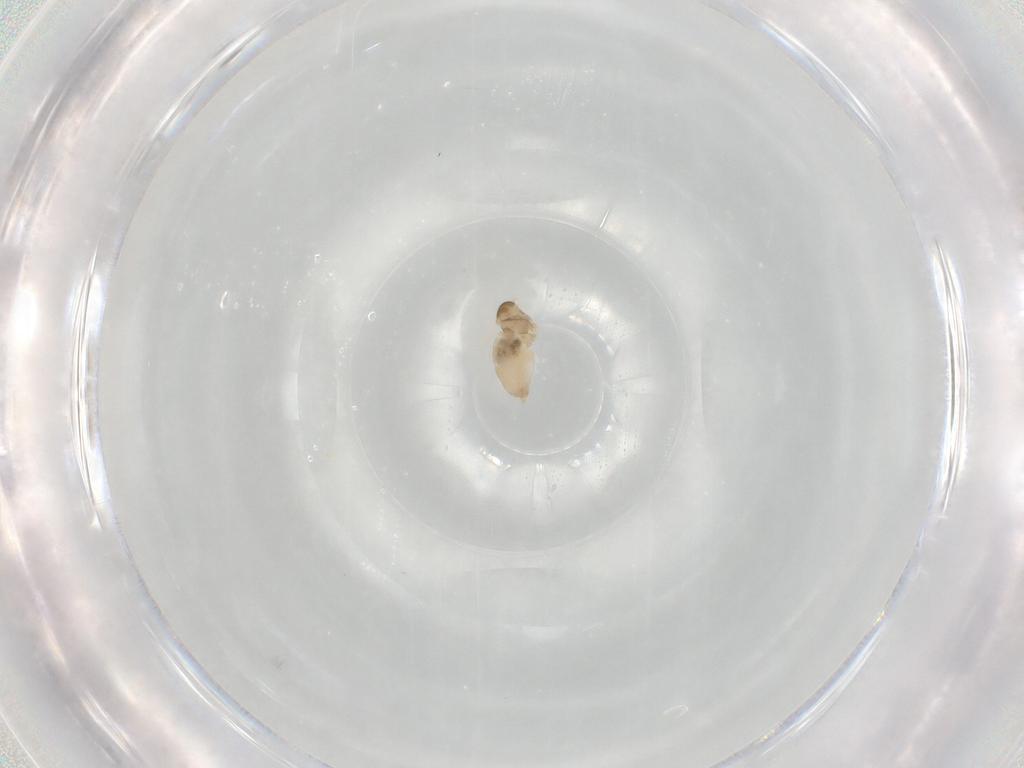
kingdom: Animalia
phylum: Arthropoda
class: Insecta
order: Diptera
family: Cecidomyiidae
